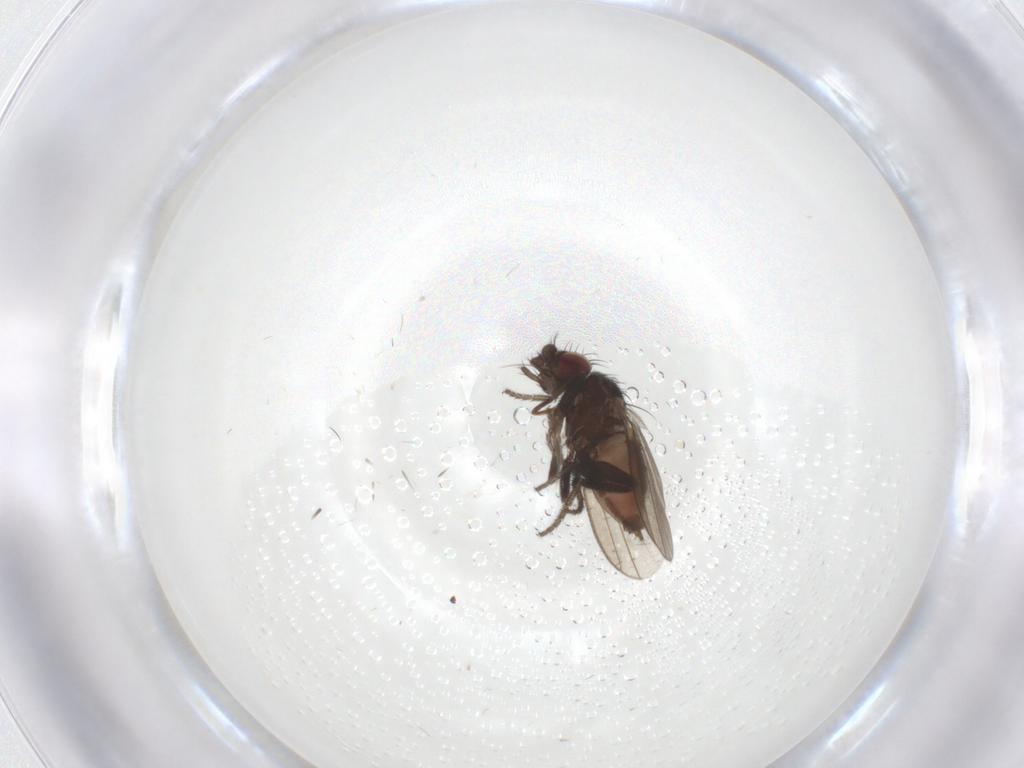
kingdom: Animalia
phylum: Arthropoda
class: Insecta
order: Diptera
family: Milichiidae
